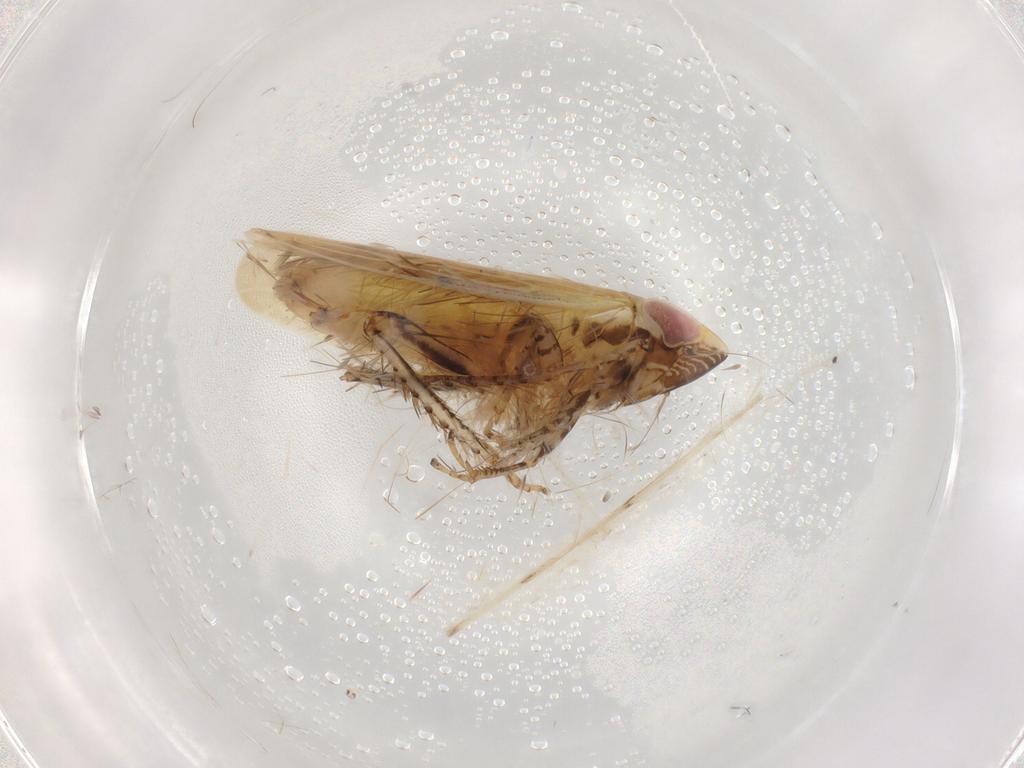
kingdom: Animalia
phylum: Arthropoda
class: Insecta
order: Hemiptera
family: Cicadellidae
